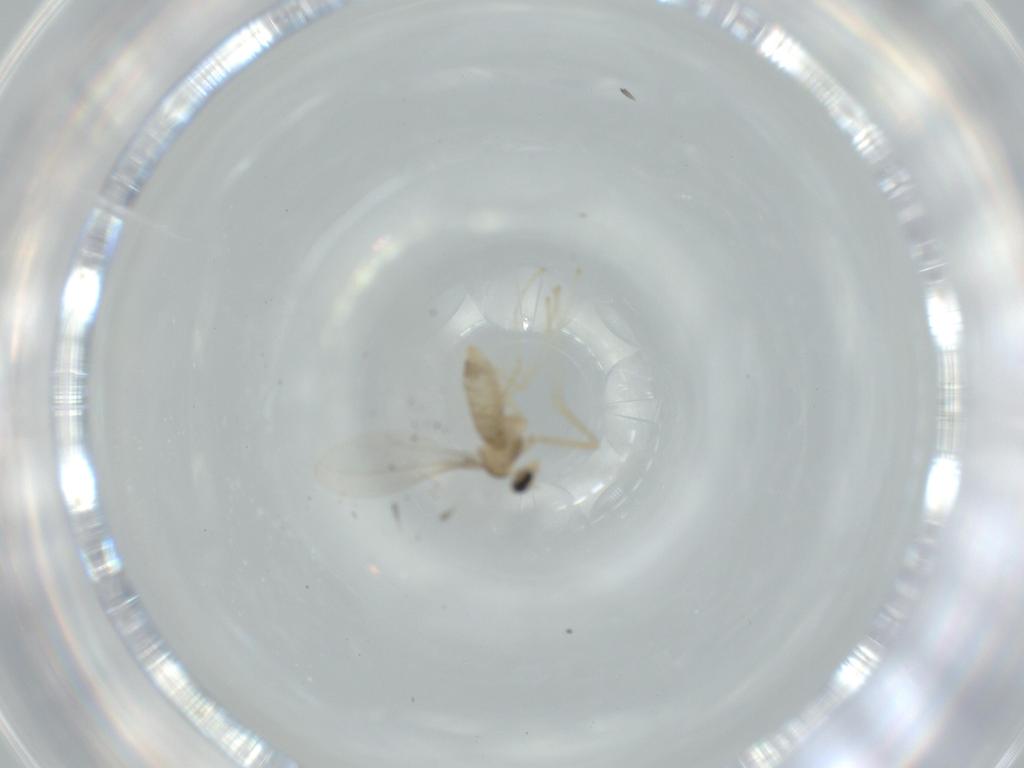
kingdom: Animalia
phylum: Arthropoda
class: Insecta
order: Diptera
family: Cecidomyiidae
